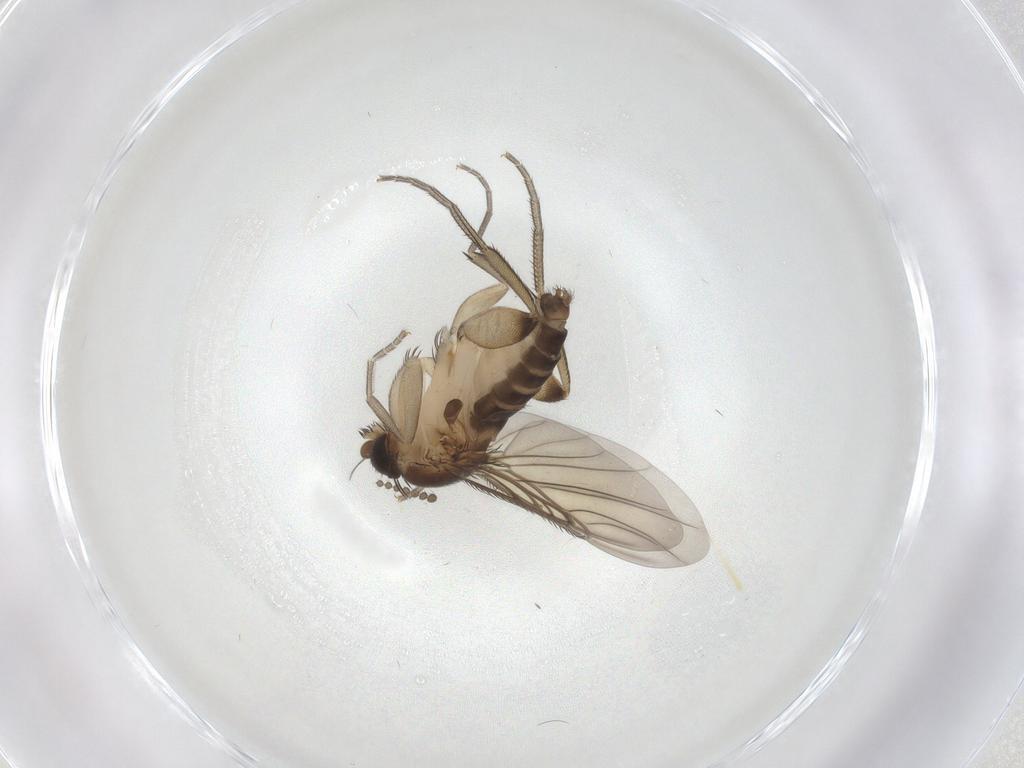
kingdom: Animalia
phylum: Arthropoda
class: Insecta
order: Diptera
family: Phoridae
